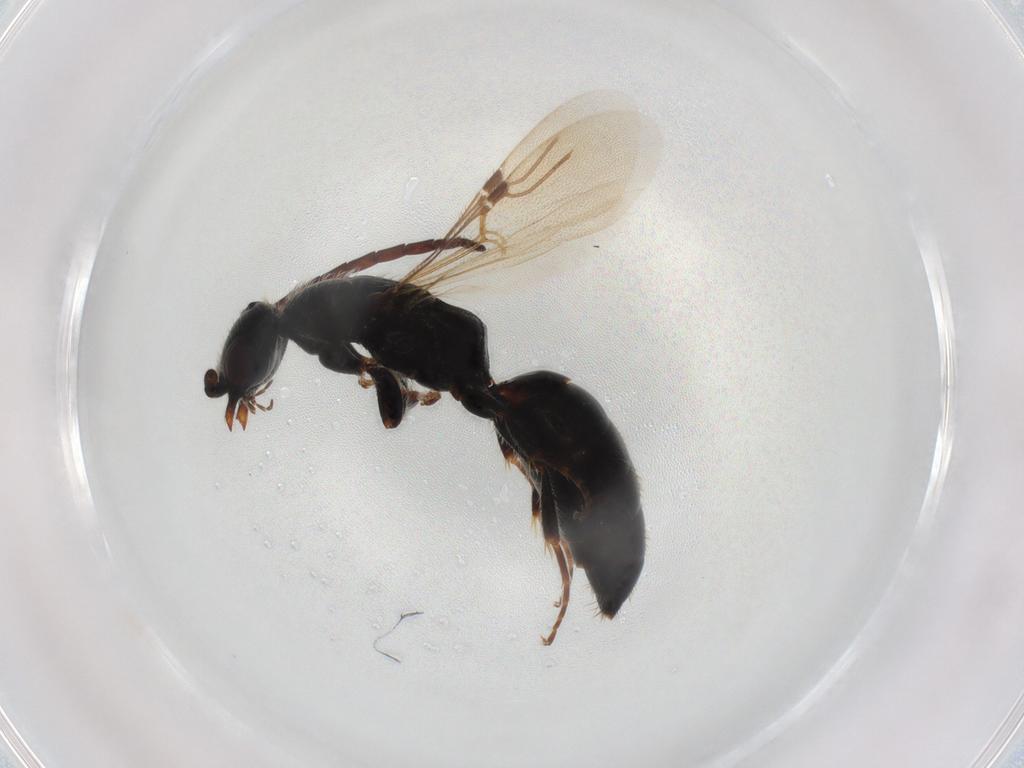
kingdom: Animalia
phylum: Arthropoda
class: Insecta
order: Hymenoptera
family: Bethylidae
